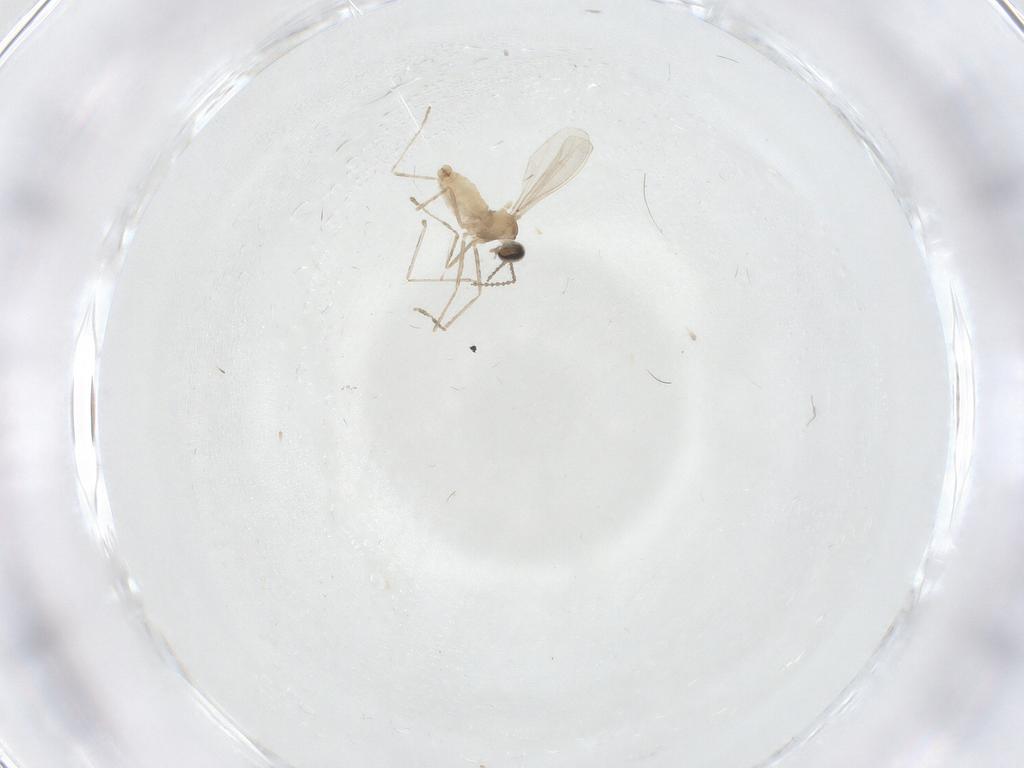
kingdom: Animalia
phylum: Arthropoda
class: Insecta
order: Diptera
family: Cecidomyiidae
